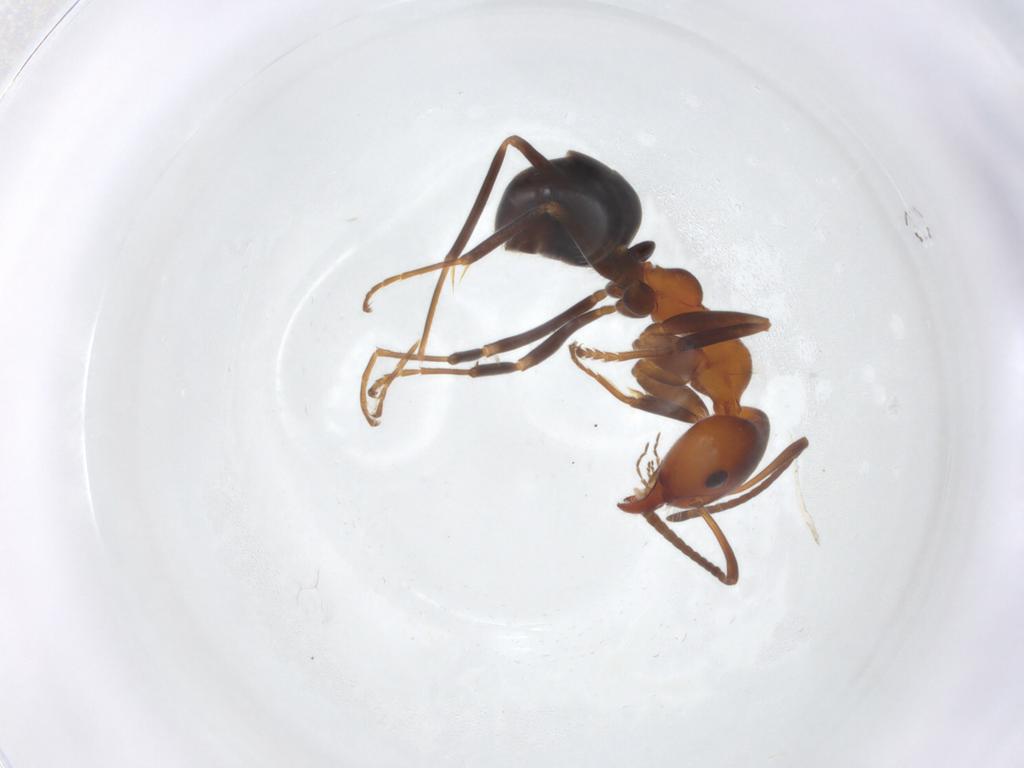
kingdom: Animalia
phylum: Arthropoda
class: Insecta
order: Hymenoptera
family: Formicidae
